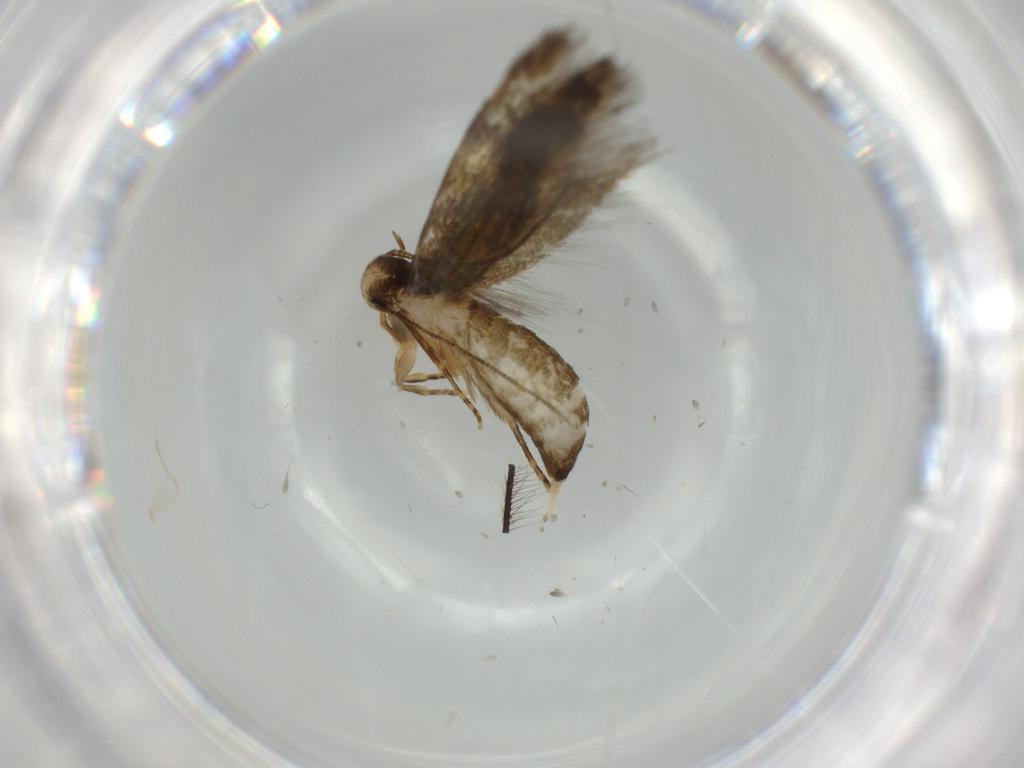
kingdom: Animalia
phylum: Arthropoda
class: Insecta
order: Lepidoptera
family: Tineidae
